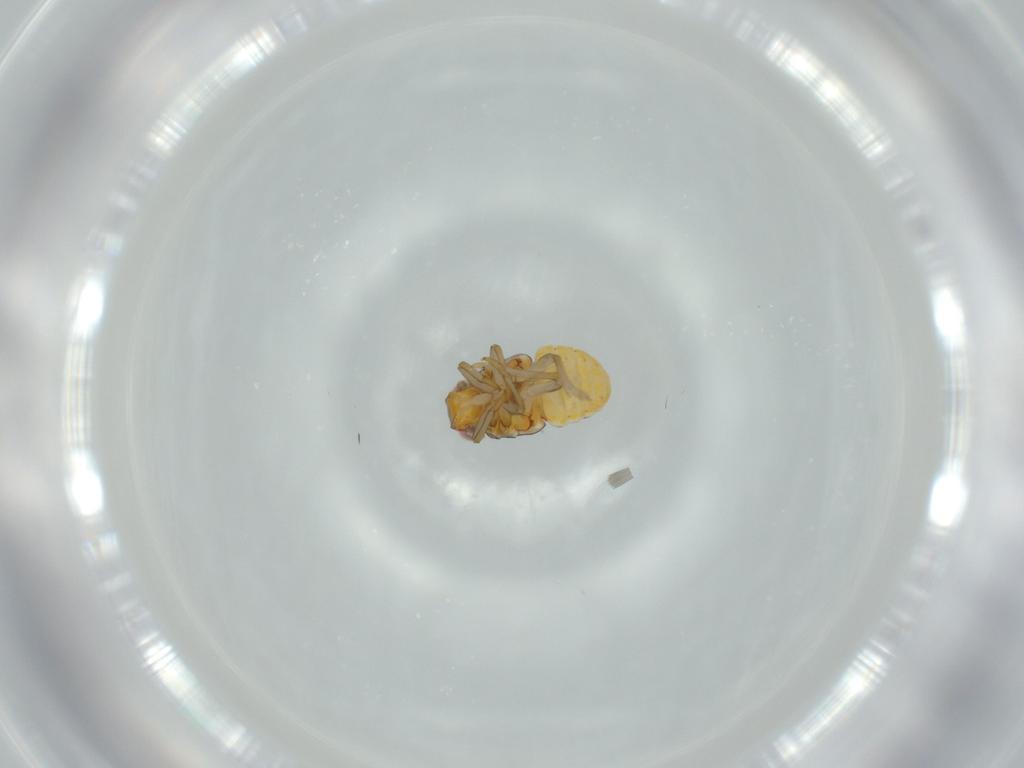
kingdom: Animalia
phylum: Arthropoda
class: Insecta
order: Hemiptera
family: Issidae
